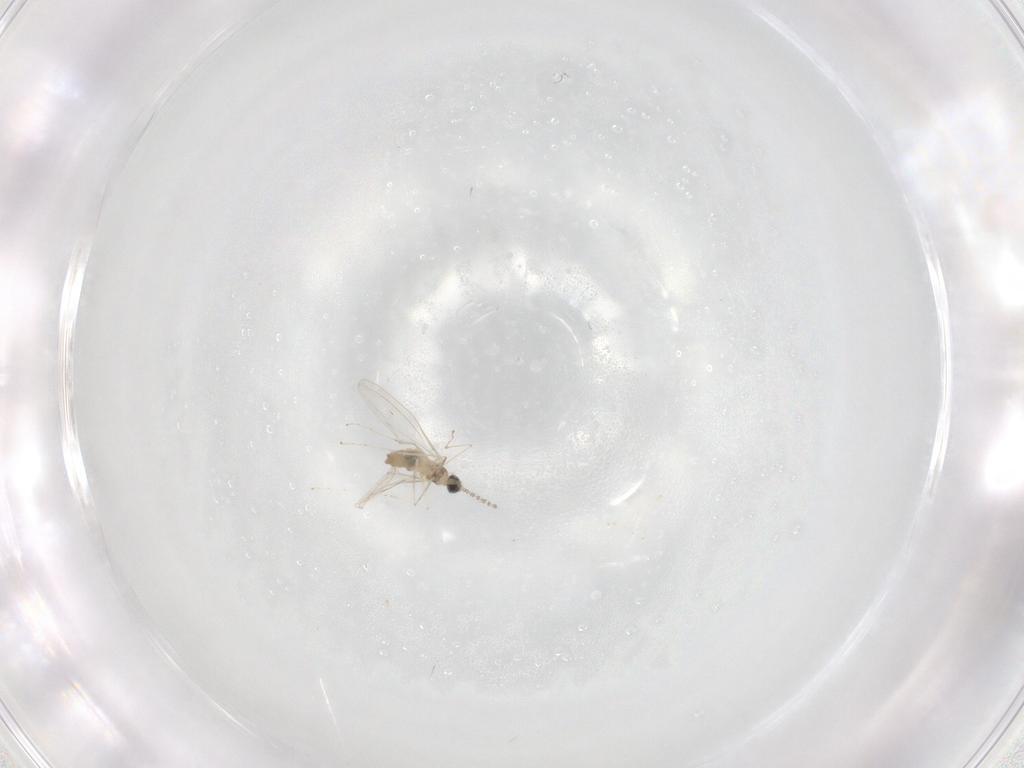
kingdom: Animalia
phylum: Arthropoda
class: Insecta
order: Diptera
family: Cecidomyiidae
